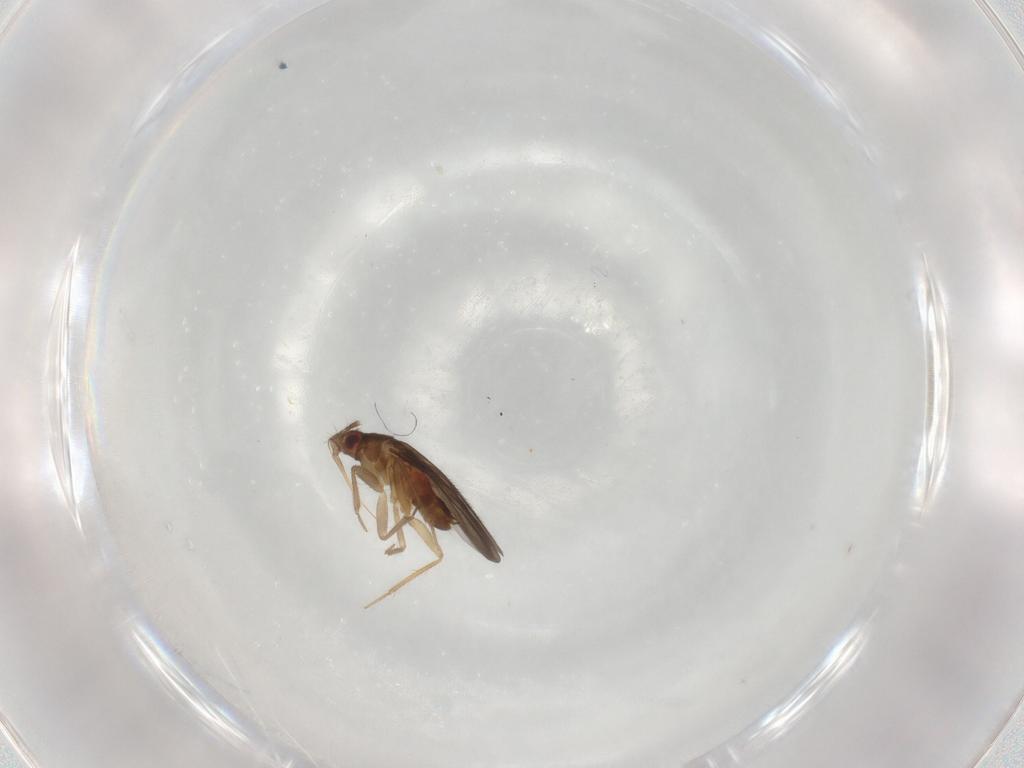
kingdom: Animalia
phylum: Arthropoda
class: Insecta
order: Hemiptera
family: Ceratocombidae
